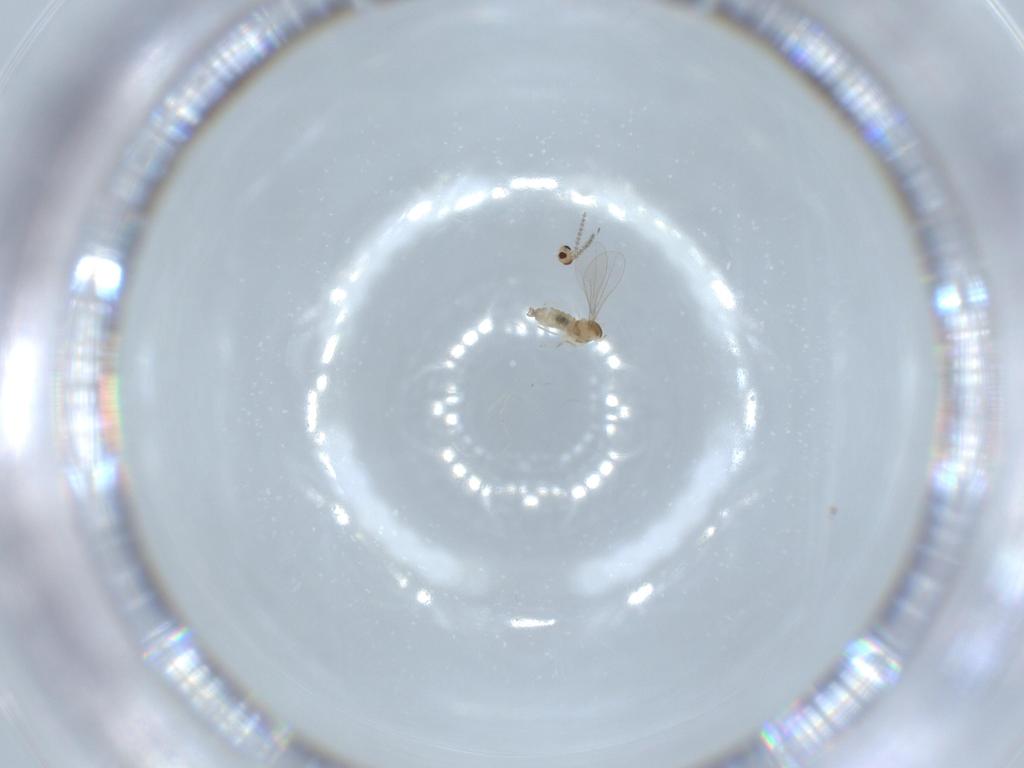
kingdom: Animalia
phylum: Arthropoda
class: Insecta
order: Diptera
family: Cecidomyiidae
